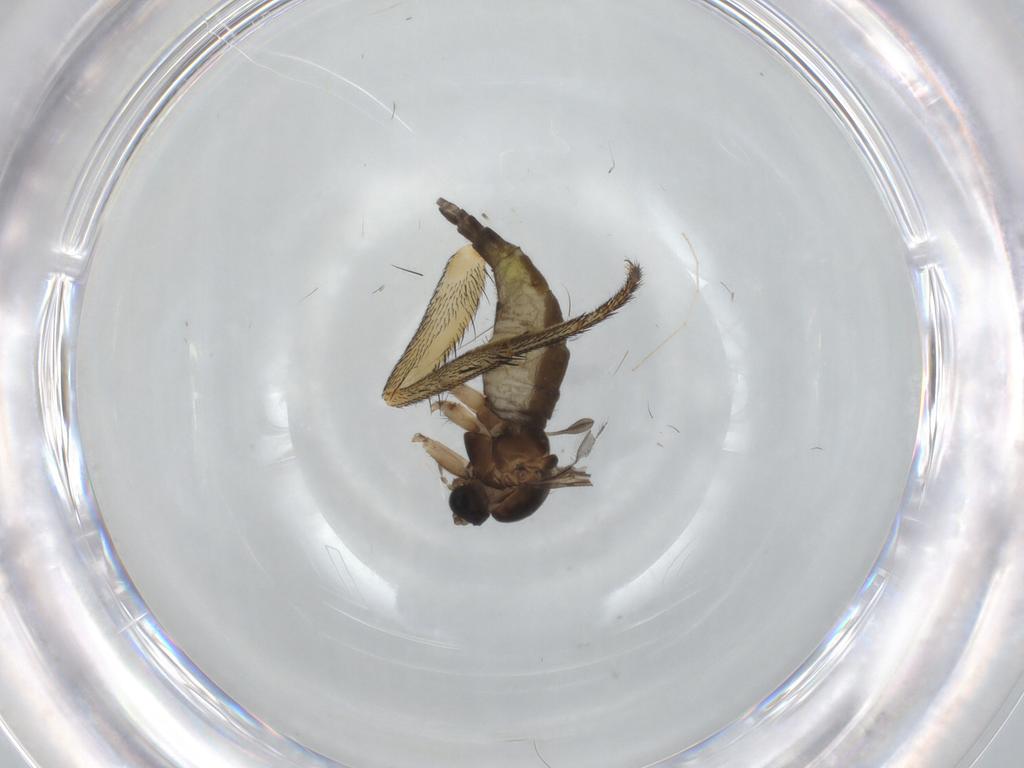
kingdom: Animalia
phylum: Arthropoda
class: Insecta
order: Diptera
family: Sciaridae
